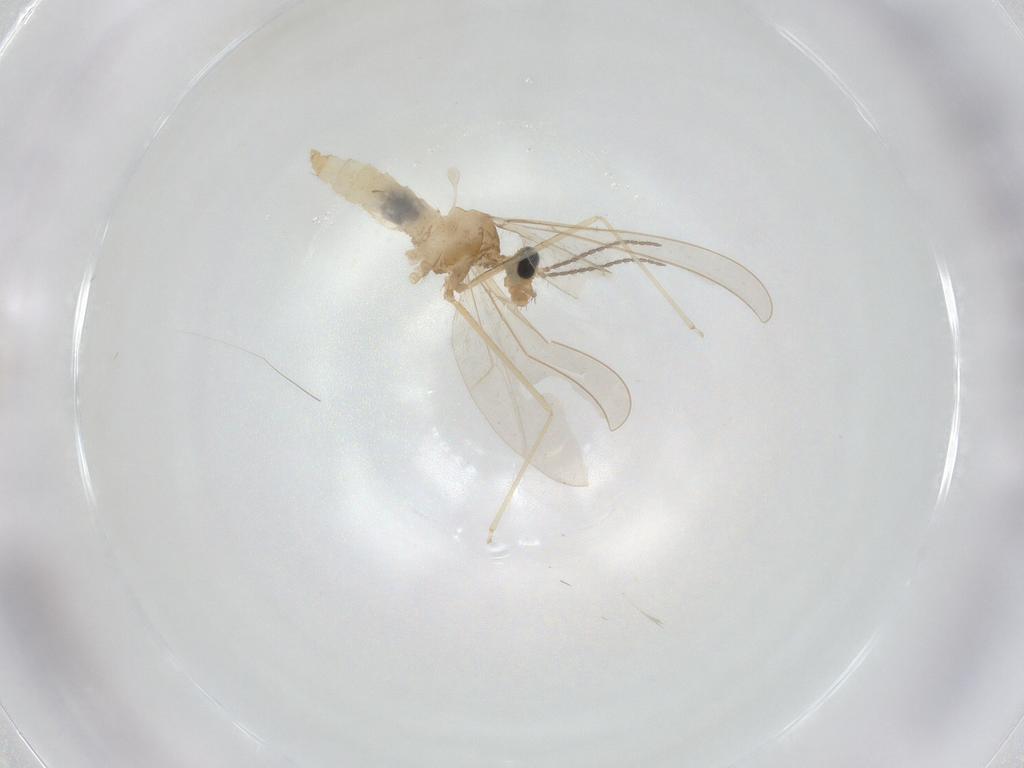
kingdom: Animalia
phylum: Arthropoda
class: Insecta
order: Diptera
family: Cecidomyiidae
